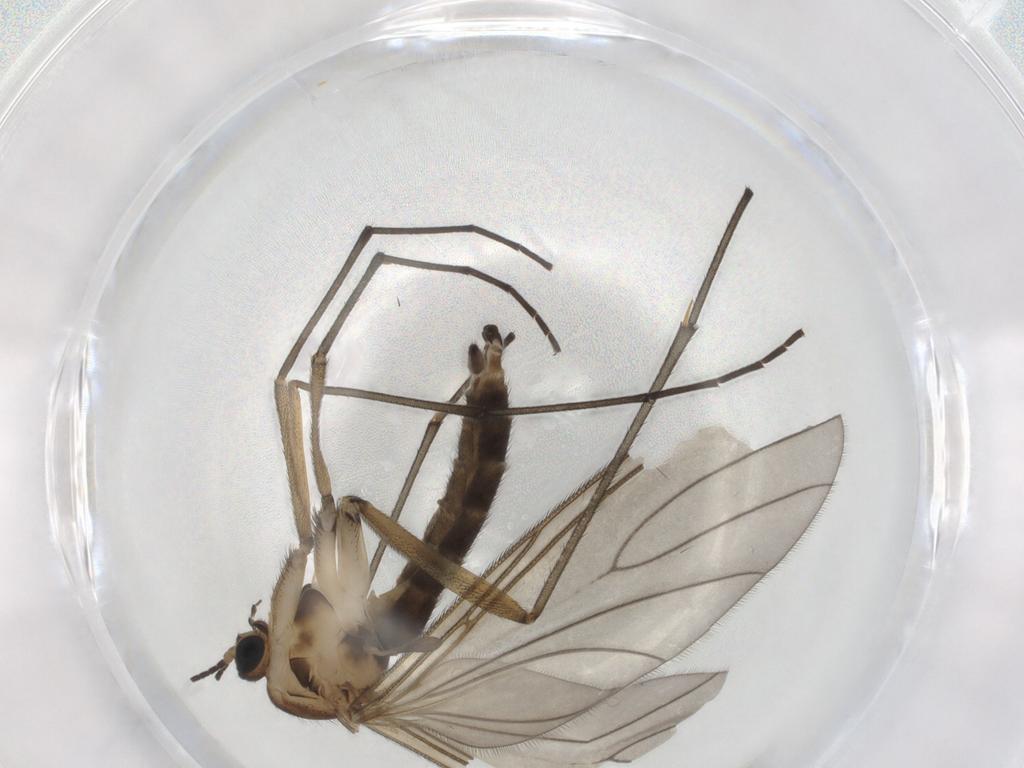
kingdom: Animalia
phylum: Arthropoda
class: Insecta
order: Diptera
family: Sciaridae
